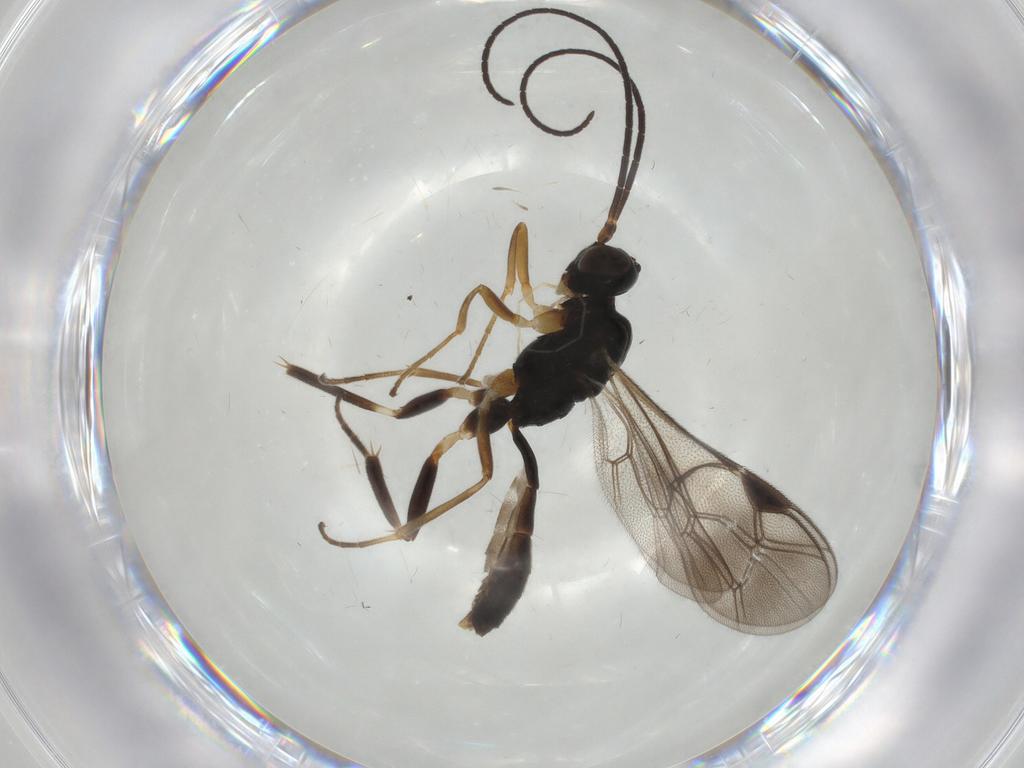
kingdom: Animalia
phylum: Arthropoda
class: Insecta
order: Hymenoptera
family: Ichneumonidae
